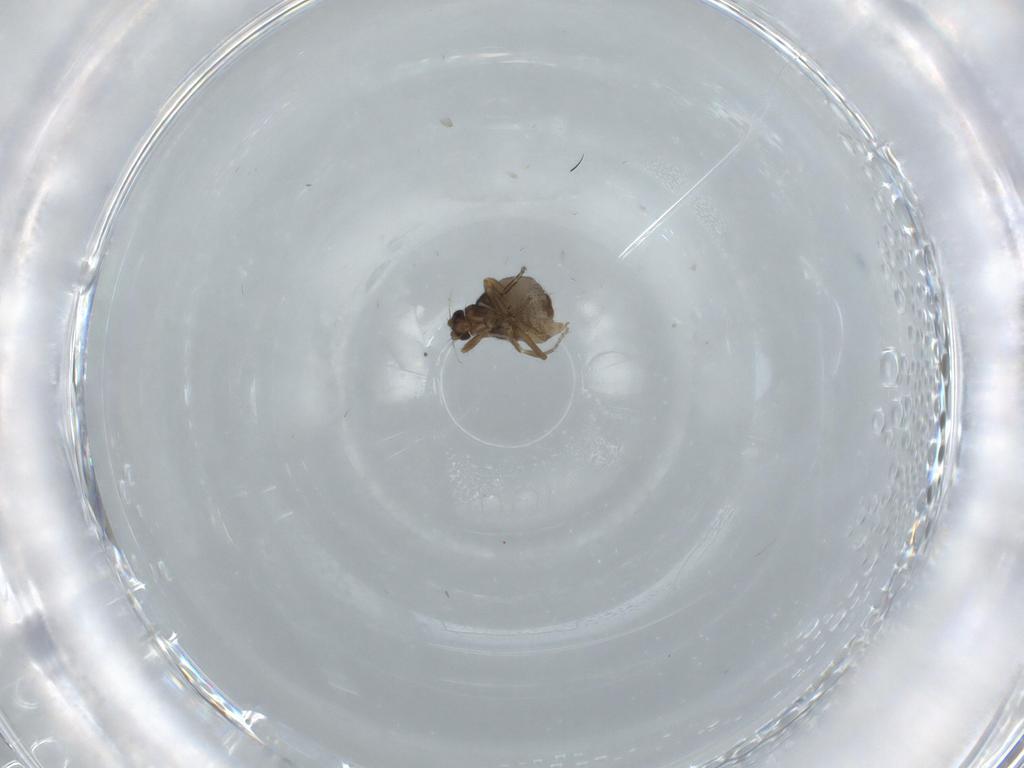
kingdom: Animalia
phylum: Arthropoda
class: Insecta
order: Diptera
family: Phoridae
